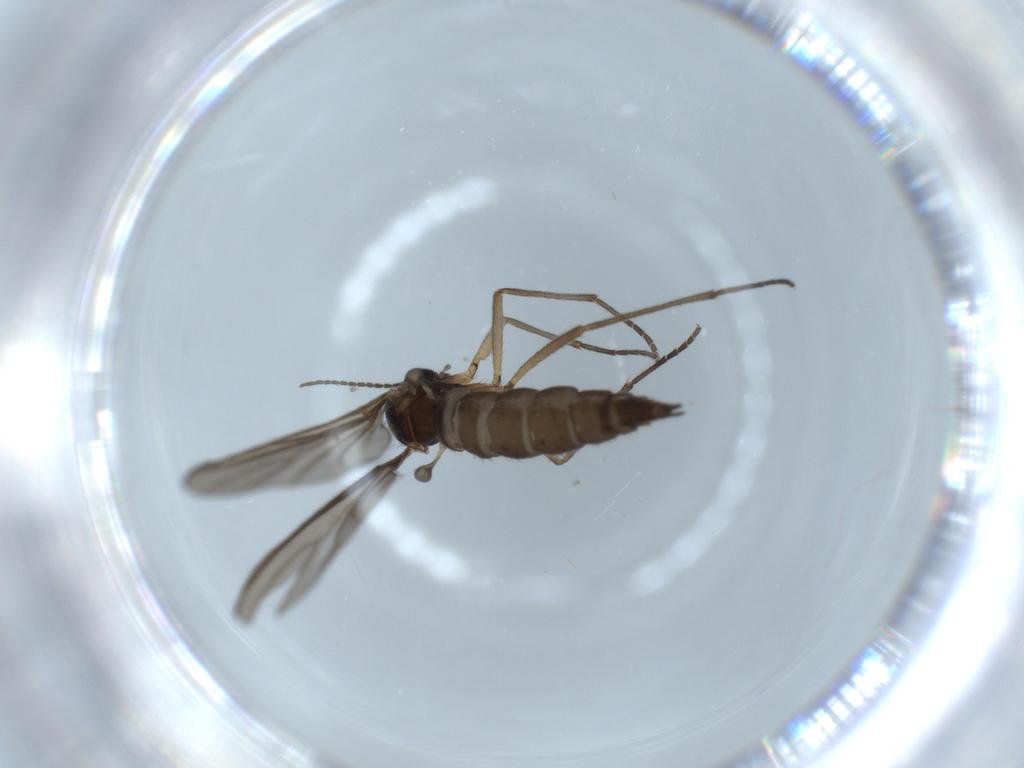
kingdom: Animalia
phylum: Arthropoda
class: Insecta
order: Diptera
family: Sciaridae
